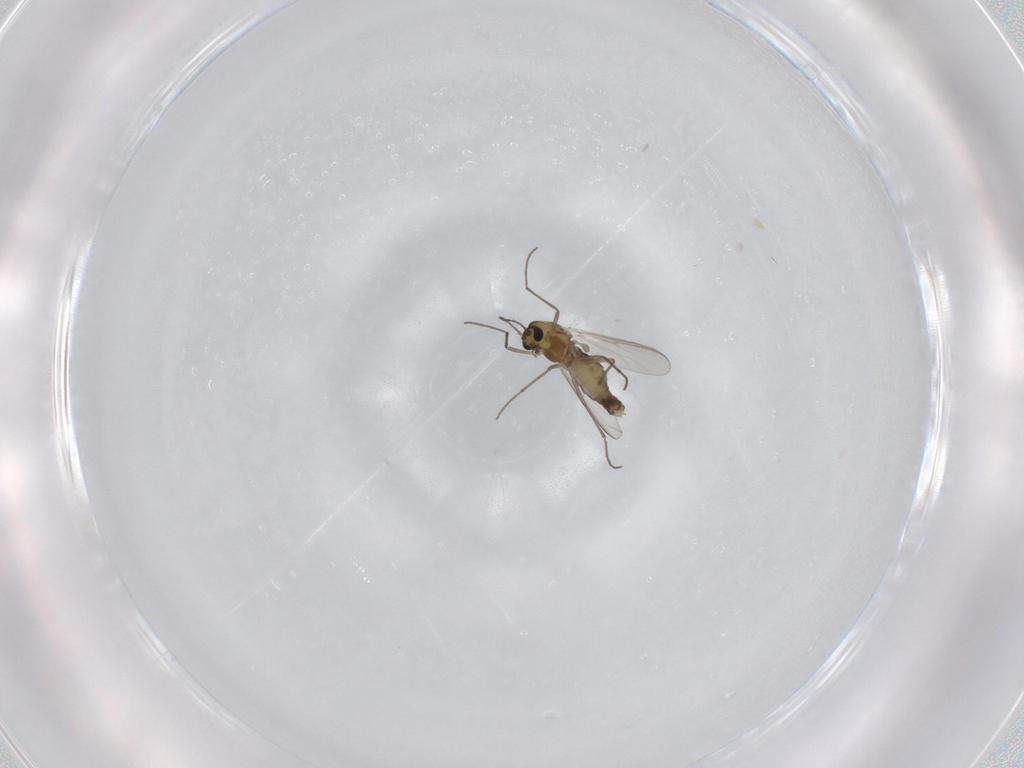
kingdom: Animalia
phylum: Arthropoda
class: Insecta
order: Diptera
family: Chironomidae
